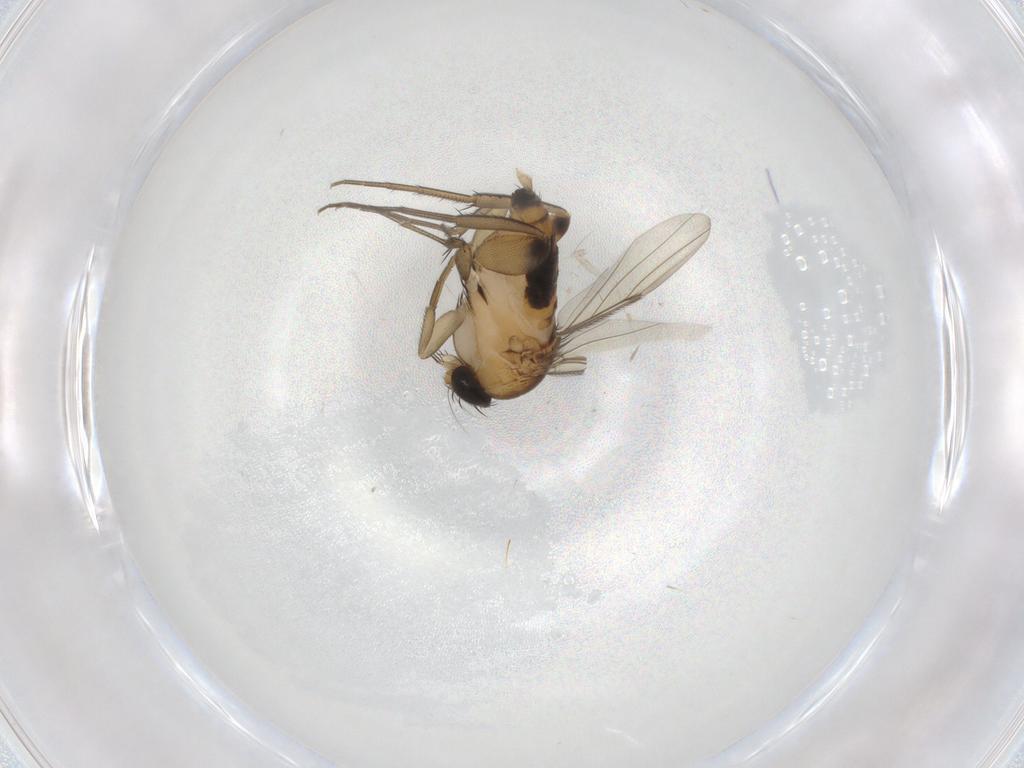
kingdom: Animalia
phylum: Arthropoda
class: Insecta
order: Diptera
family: Phoridae
